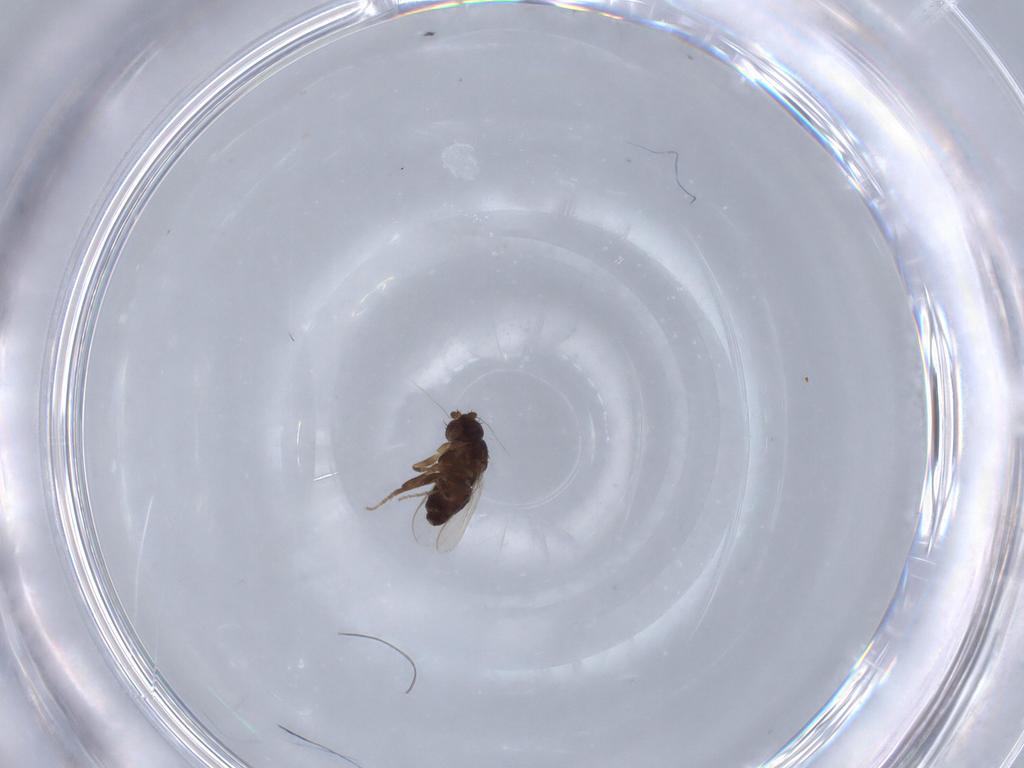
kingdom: Animalia
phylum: Arthropoda
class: Insecta
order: Diptera
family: Sphaeroceridae
